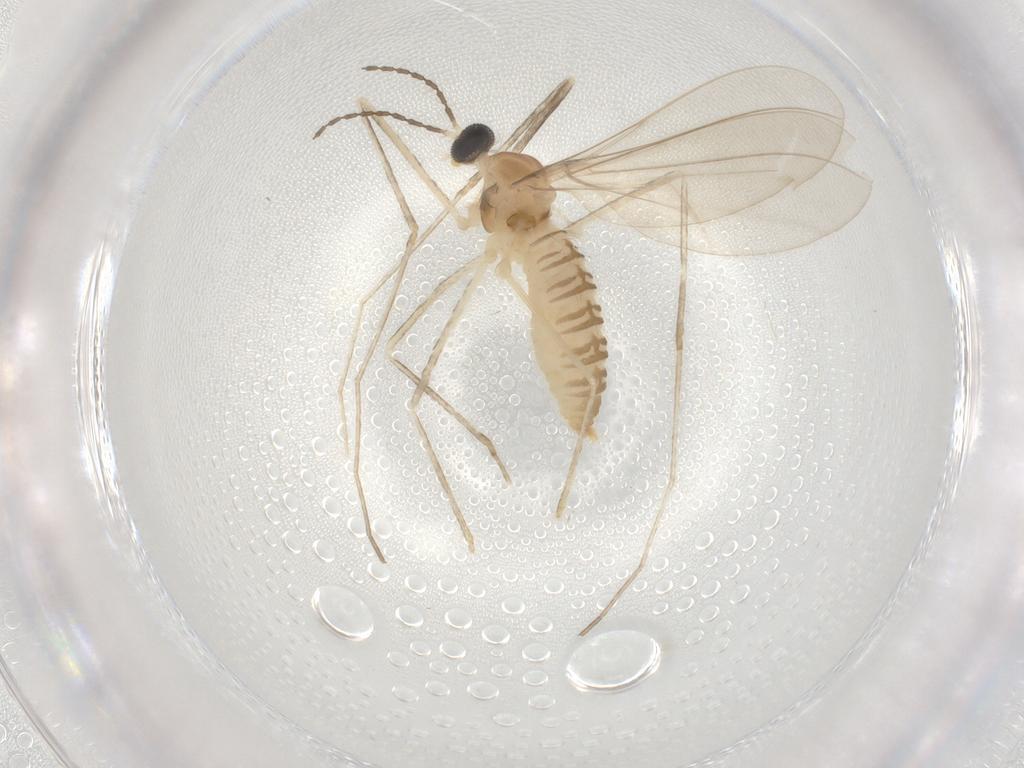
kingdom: Animalia
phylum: Arthropoda
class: Insecta
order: Diptera
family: Cecidomyiidae
